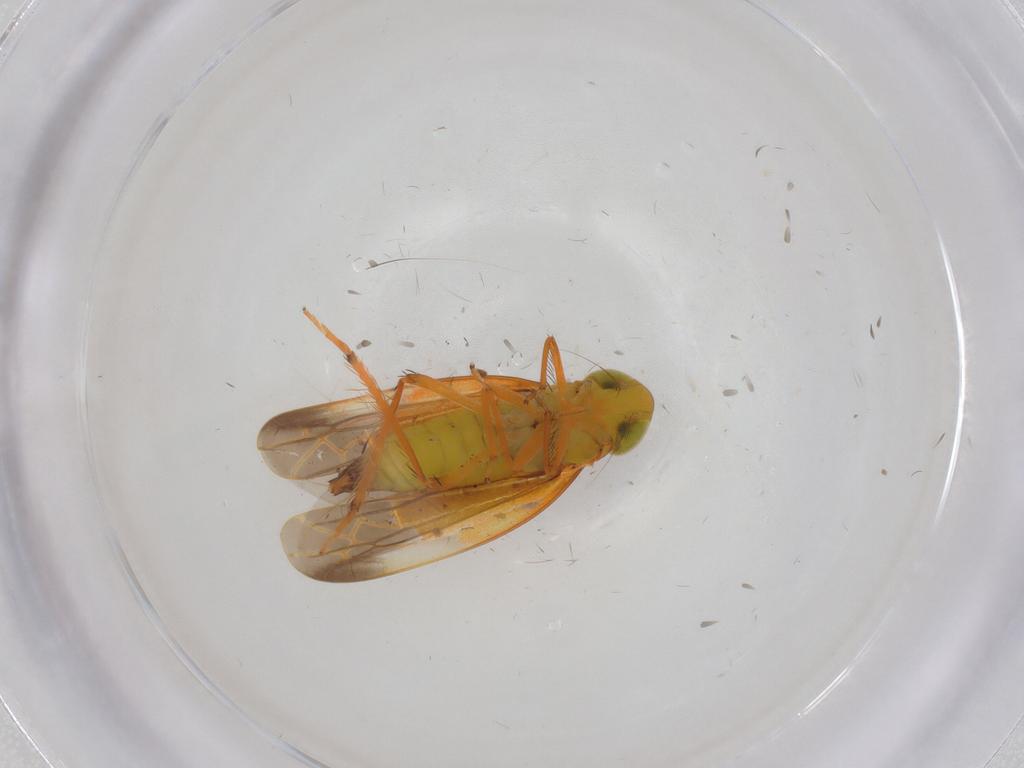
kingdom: Animalia
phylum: Arthropoda
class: Insecta
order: Hemiptera
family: Cicadellidae
